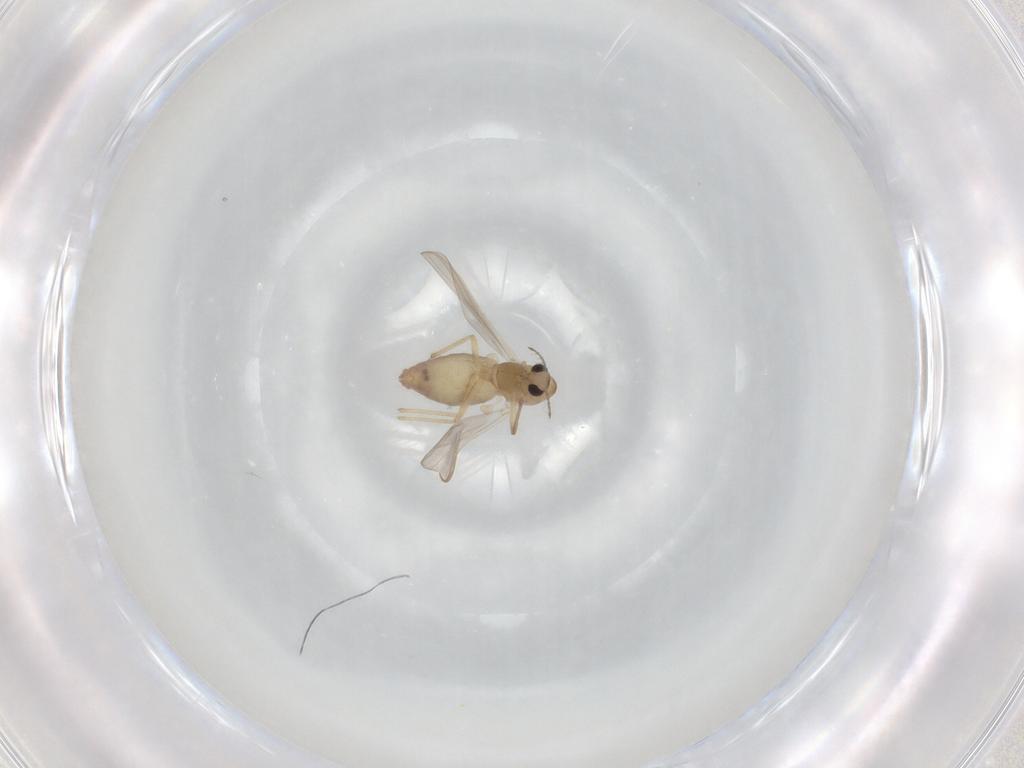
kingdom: Animalia
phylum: Arthropoda
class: Insecta
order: Diptera
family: Chironomidae
